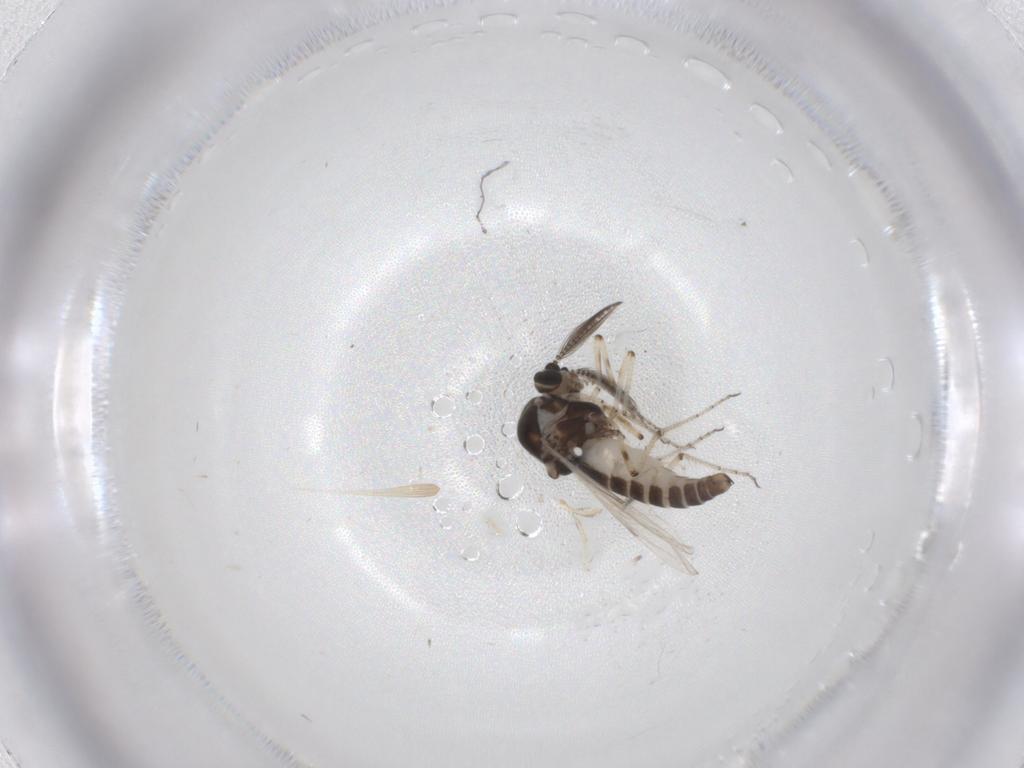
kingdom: Animalia
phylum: Arthropoda
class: Insecta
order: Diptera
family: Ceratopogonidae
